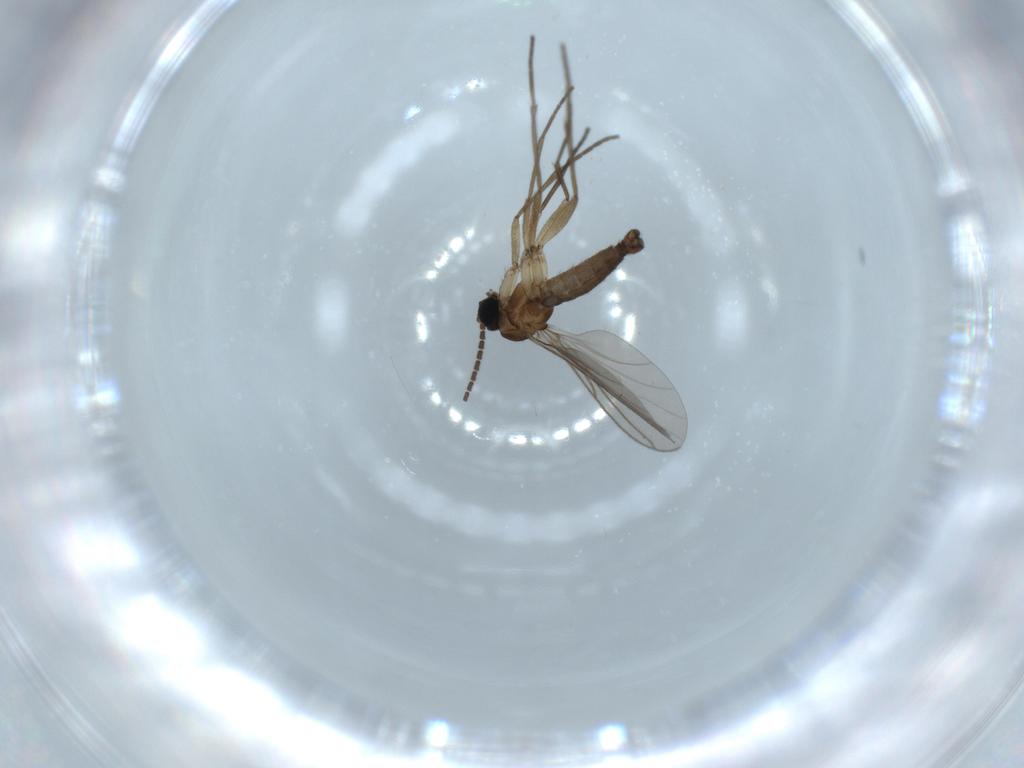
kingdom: Animalia
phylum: Arthropoda
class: Insecta
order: Diptera
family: Sciaridae
